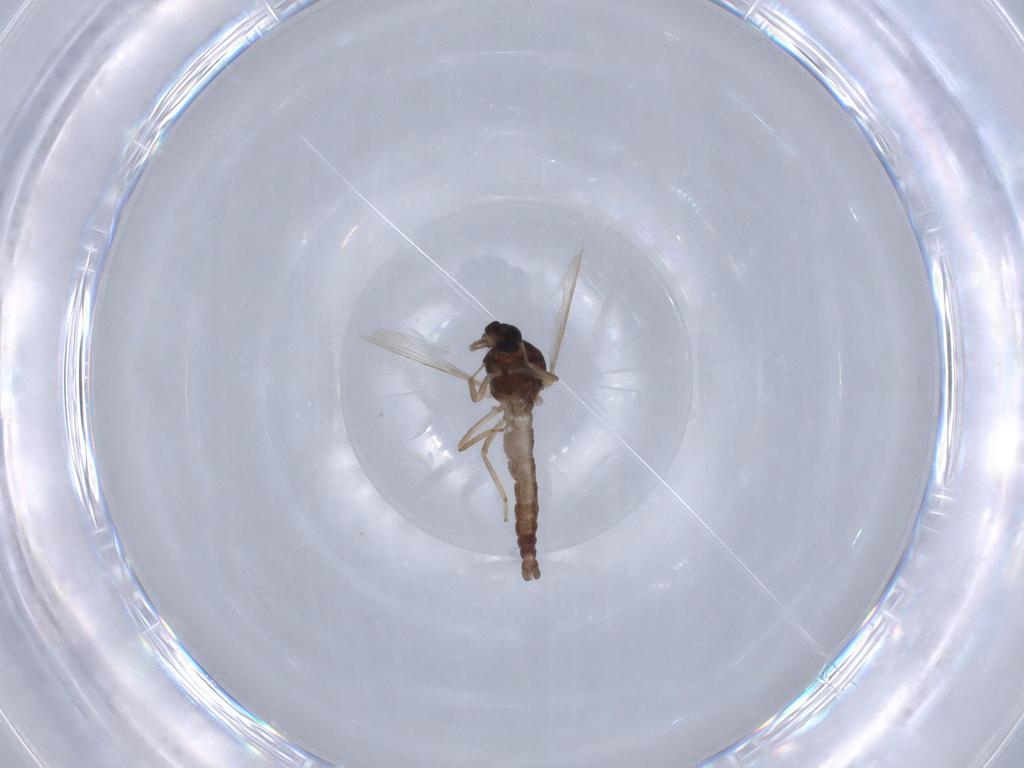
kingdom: Animalia
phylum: Arthropoda
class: Insecta
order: Diptera
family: Ceratopogonidae
